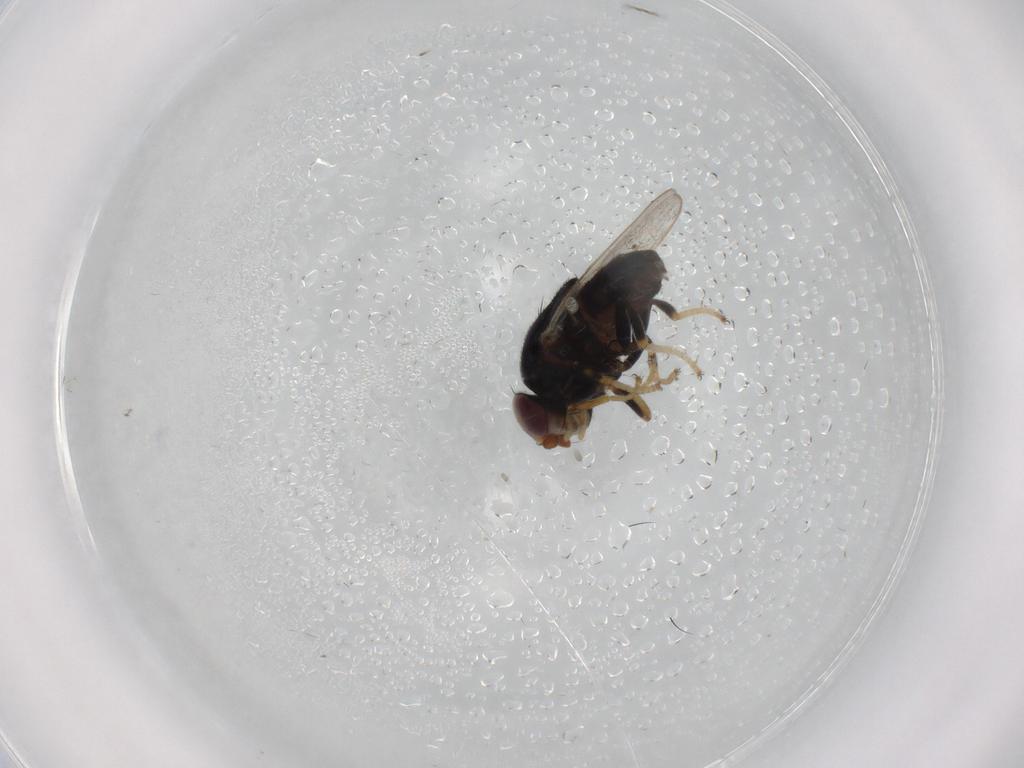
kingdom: Animalia
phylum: Arthropoda
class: Insecta
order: Diptera
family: Chloropidae
